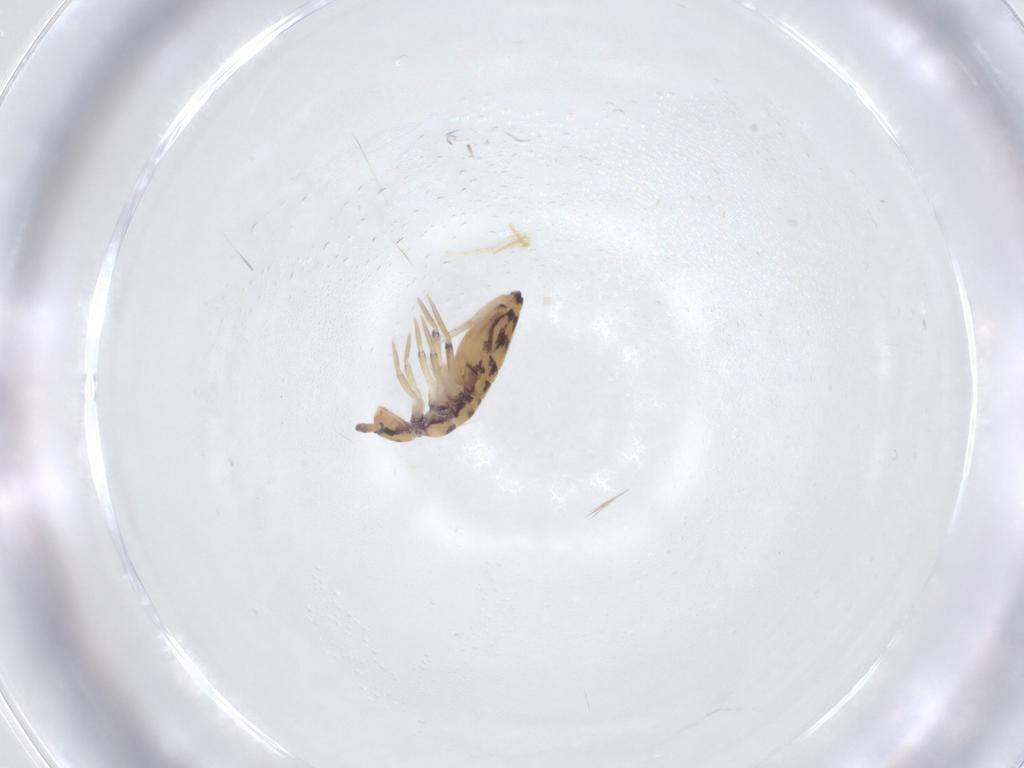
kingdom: Animalia
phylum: Arthropoda
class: Collembola
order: Entomobryomorpha
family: Entomobryidae
